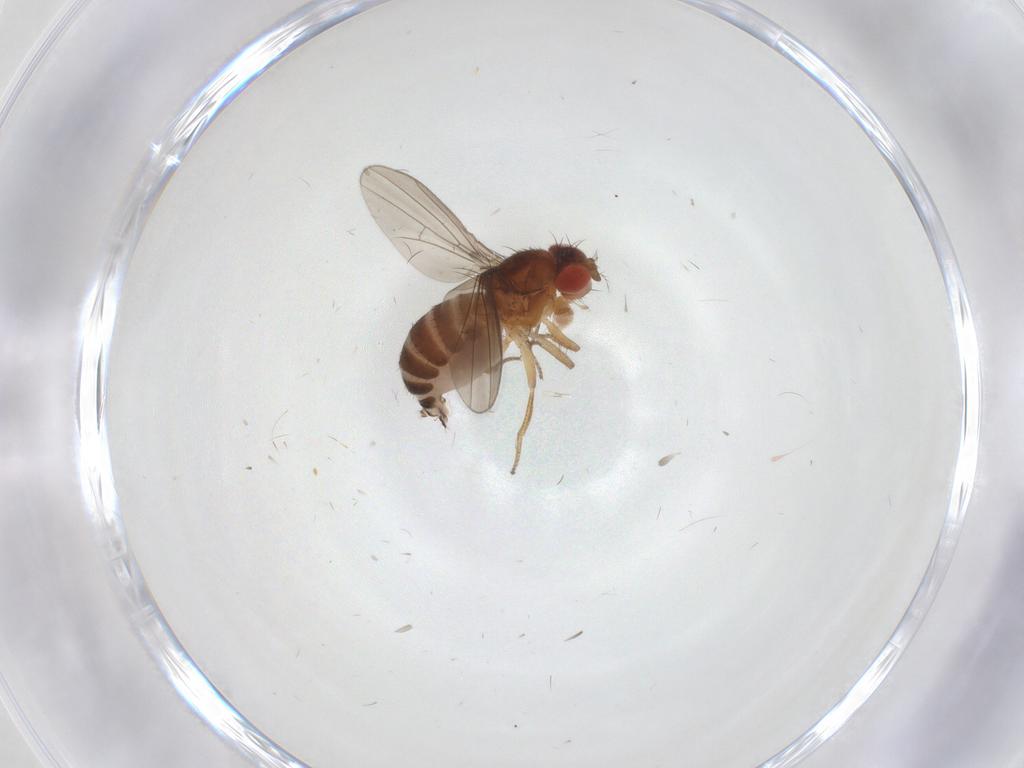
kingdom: Animalia
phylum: Arthropoda
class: Insecta
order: Diptera
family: Drosophilidae
